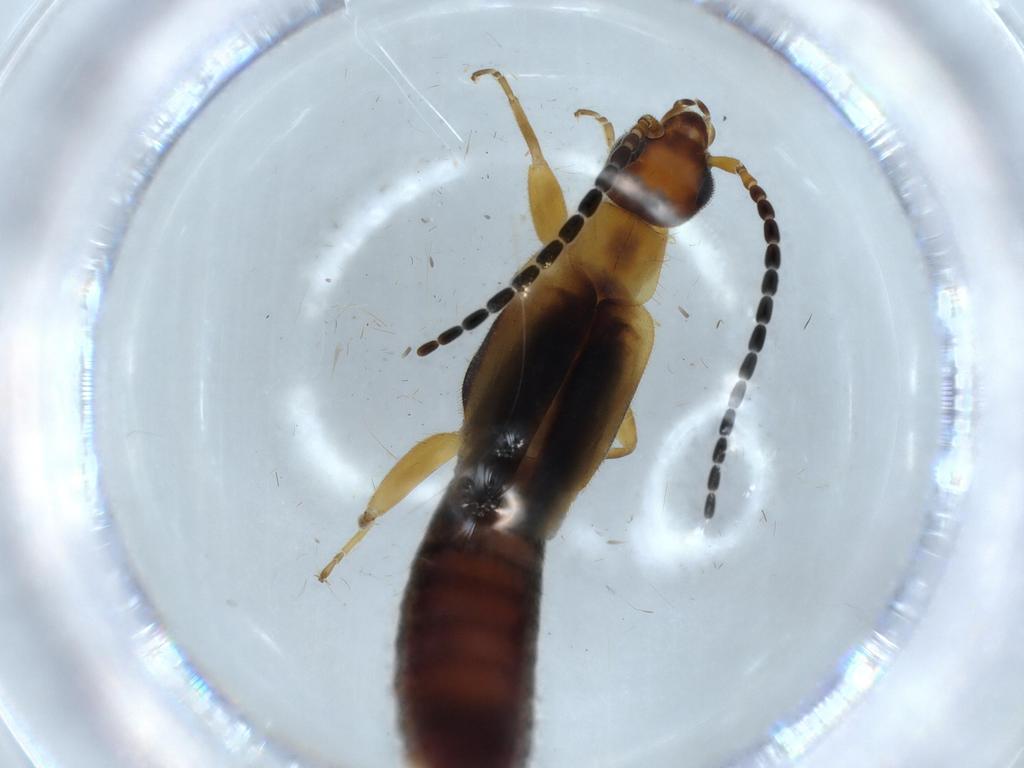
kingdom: Animalia
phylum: Arthropoda
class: Insecta
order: Dermaptera
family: Forficulidae
